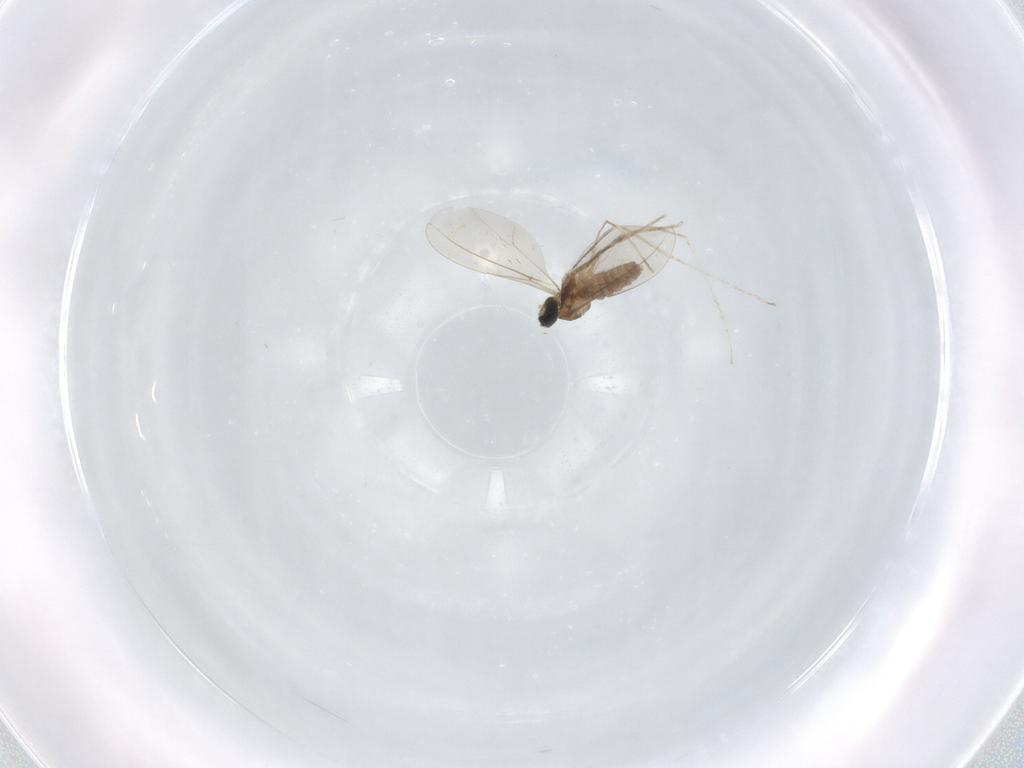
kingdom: Animalia
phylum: Arthropoda
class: Insecta
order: Diptera
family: Cecidomyiidae
